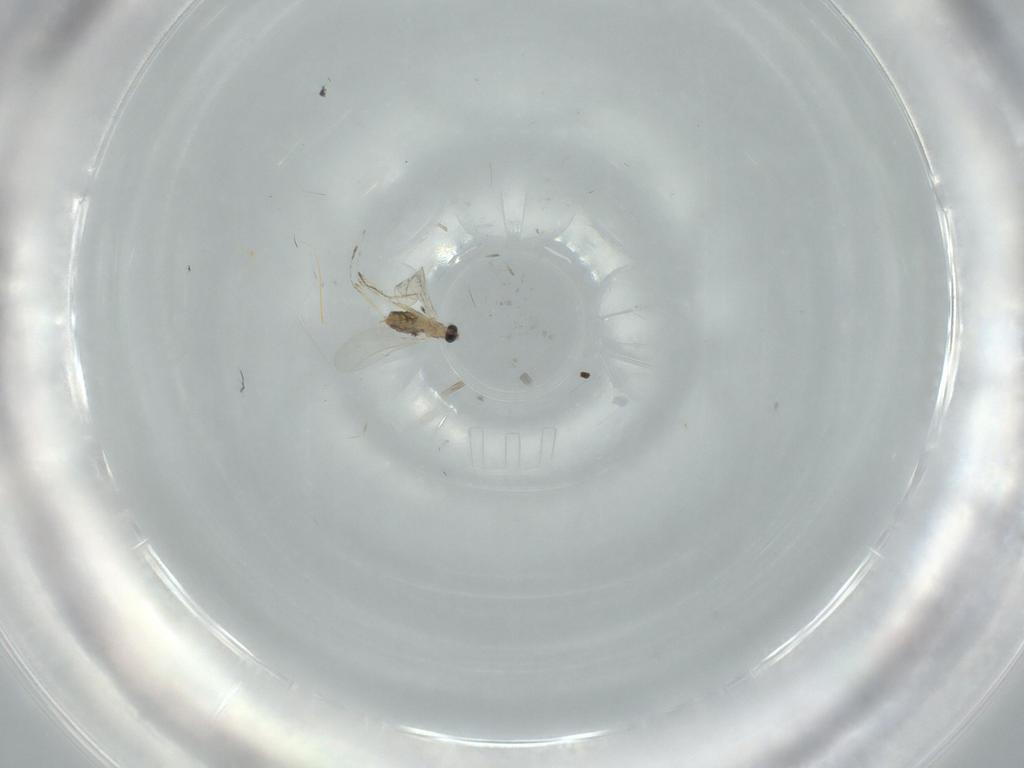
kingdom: Animalia
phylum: Arthropoda
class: Insecta
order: Diptera
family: Cecidomyiidae
